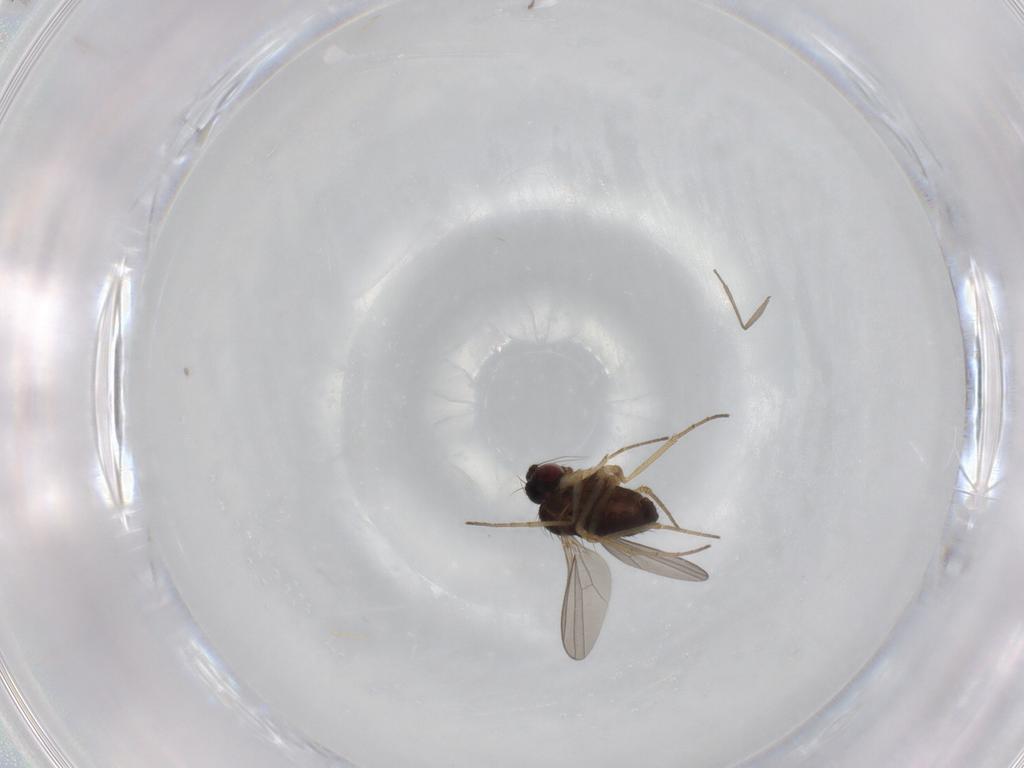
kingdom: Animalia
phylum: Arthropoda
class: Insecta
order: Diptera
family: Dolichopodidae
